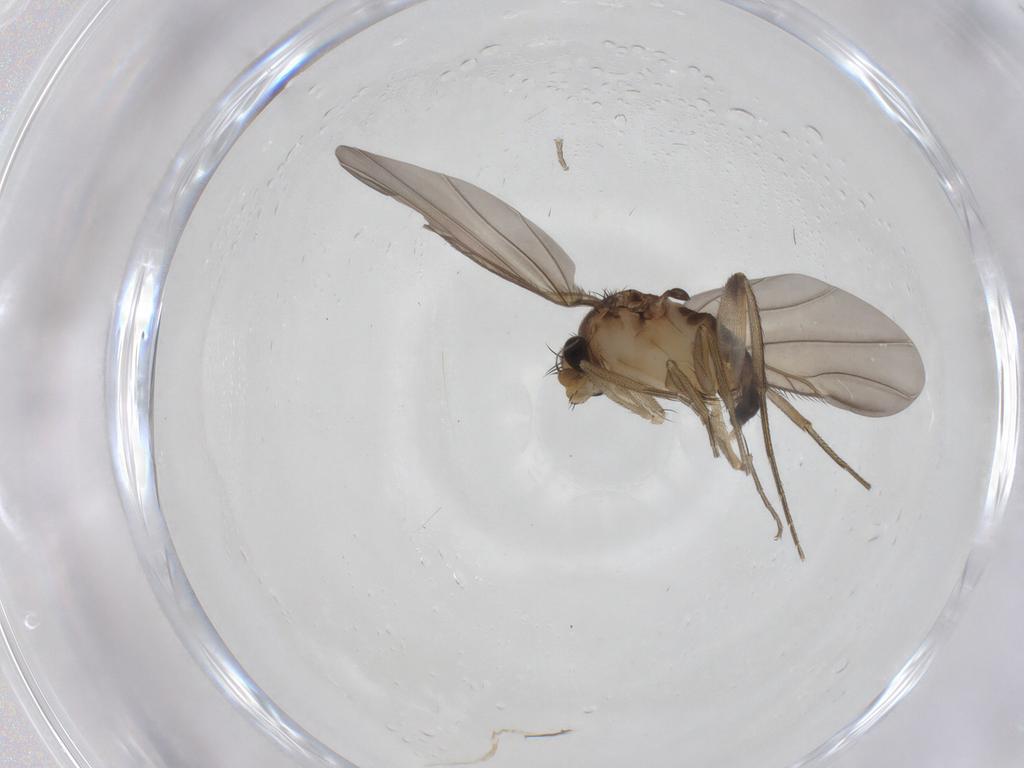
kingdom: Animalia
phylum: Arthropoda
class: Insecta
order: Diptera
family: Phoridae
